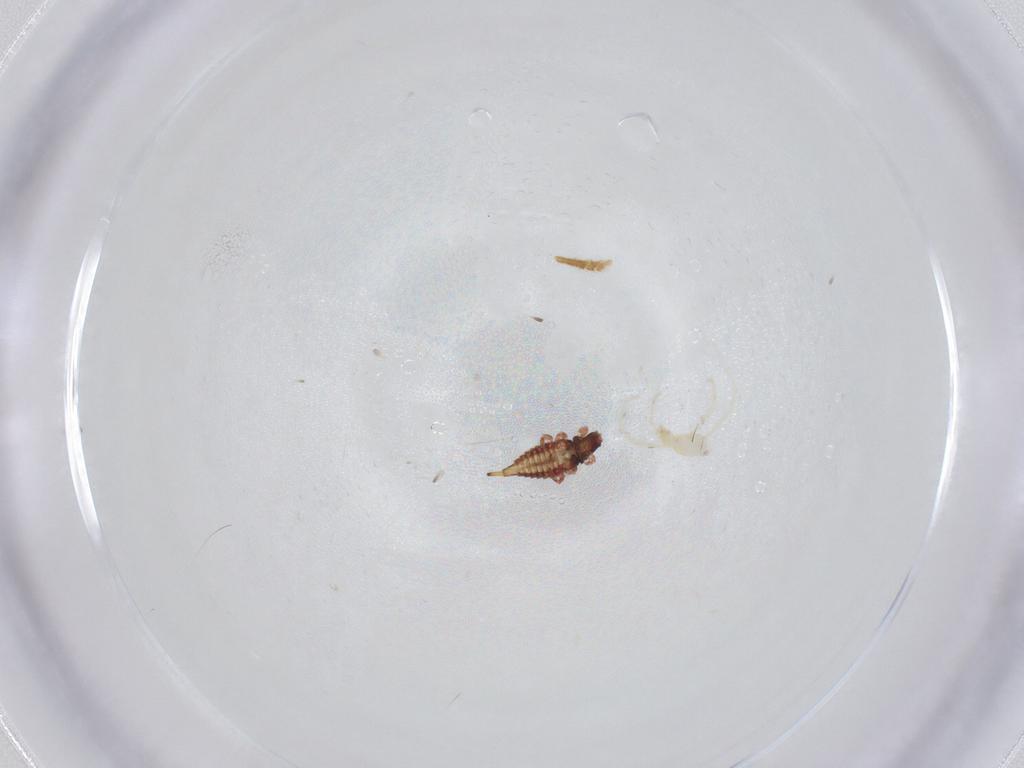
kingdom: Animalia
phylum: Arthropoda
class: Arachnida
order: Trombidiformes
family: Erythraeidae
